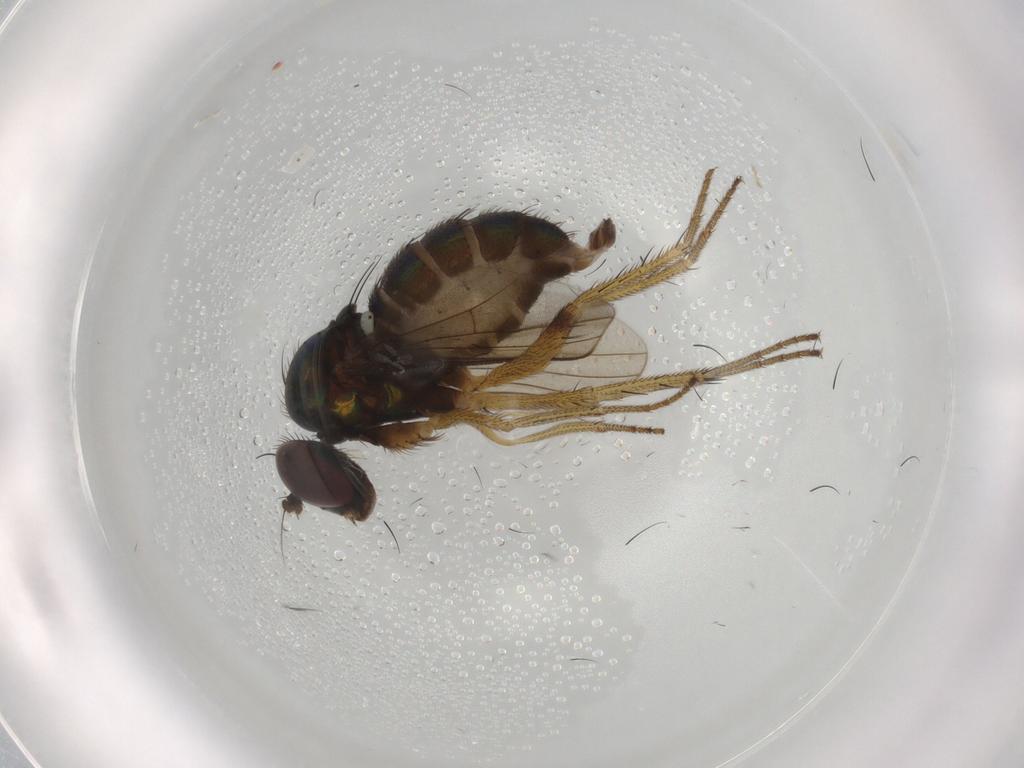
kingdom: Animalia
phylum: Arthropoda
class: Insecta
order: Diptera
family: Dolichopodidae
